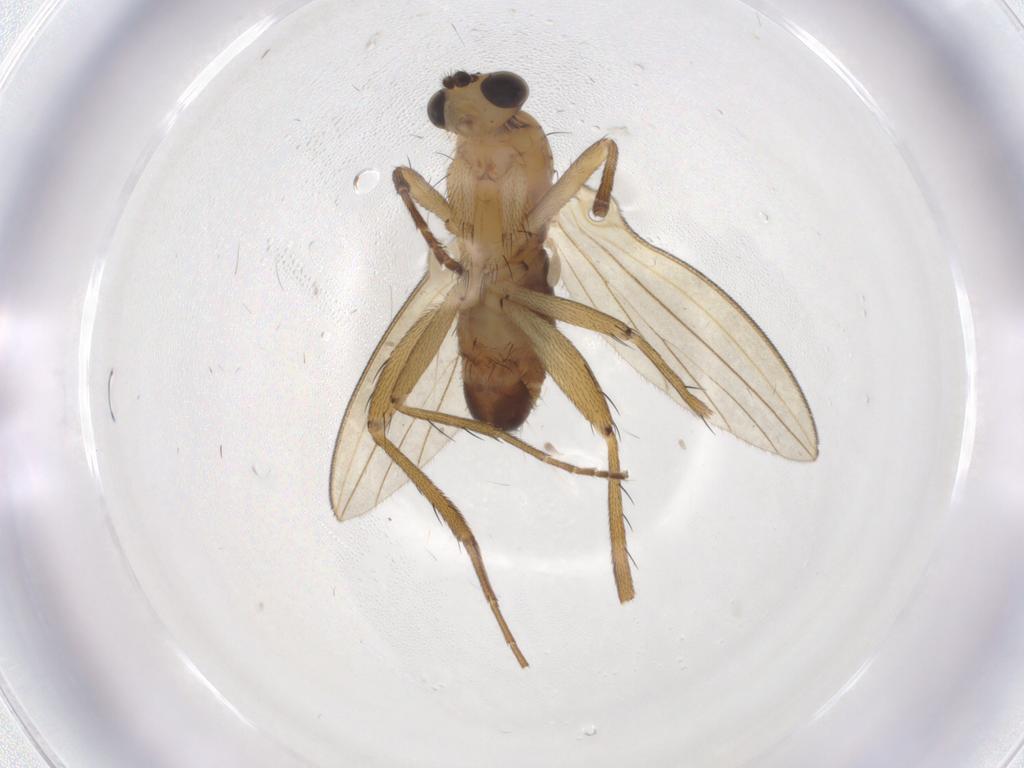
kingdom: Animalia
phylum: Arthropoda
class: Insecta
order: Diptera
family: Lonchopteridae
